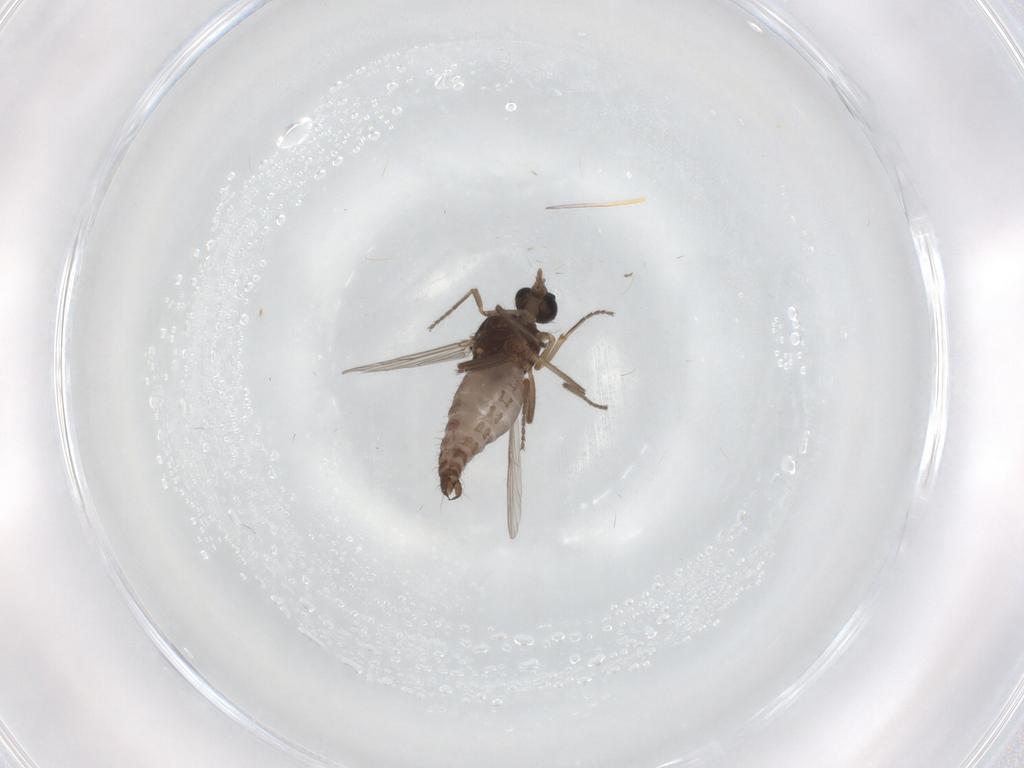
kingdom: Animalia
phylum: Arthropoda
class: Insecta
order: Diptera
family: Ceratopogonidae
